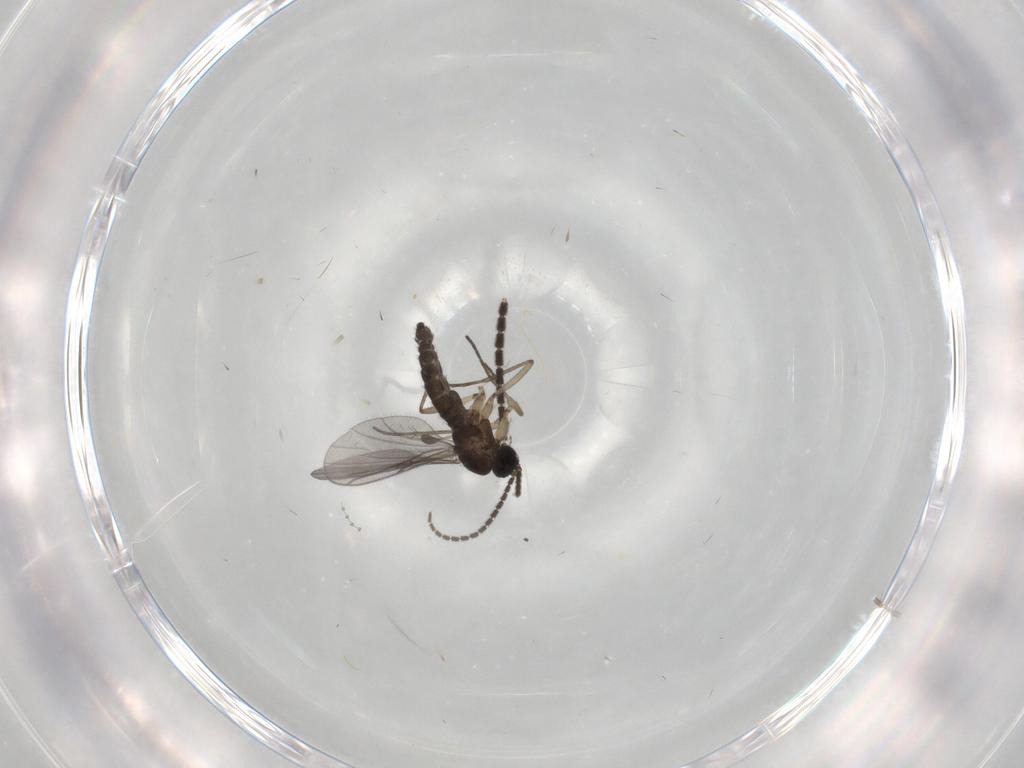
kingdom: Animalia
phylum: Arthropoda
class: Insecta
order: Diptera
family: Sciaridae
